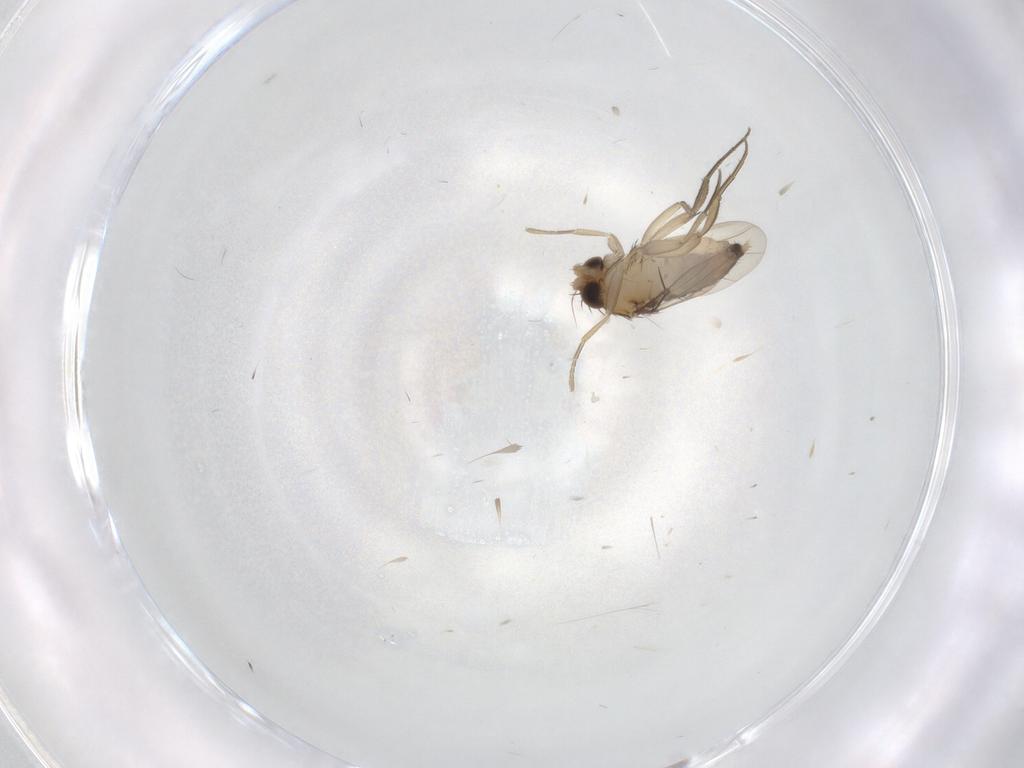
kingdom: Animalia
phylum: Arthropoda
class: Insecta
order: Diptera
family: Phoridae
